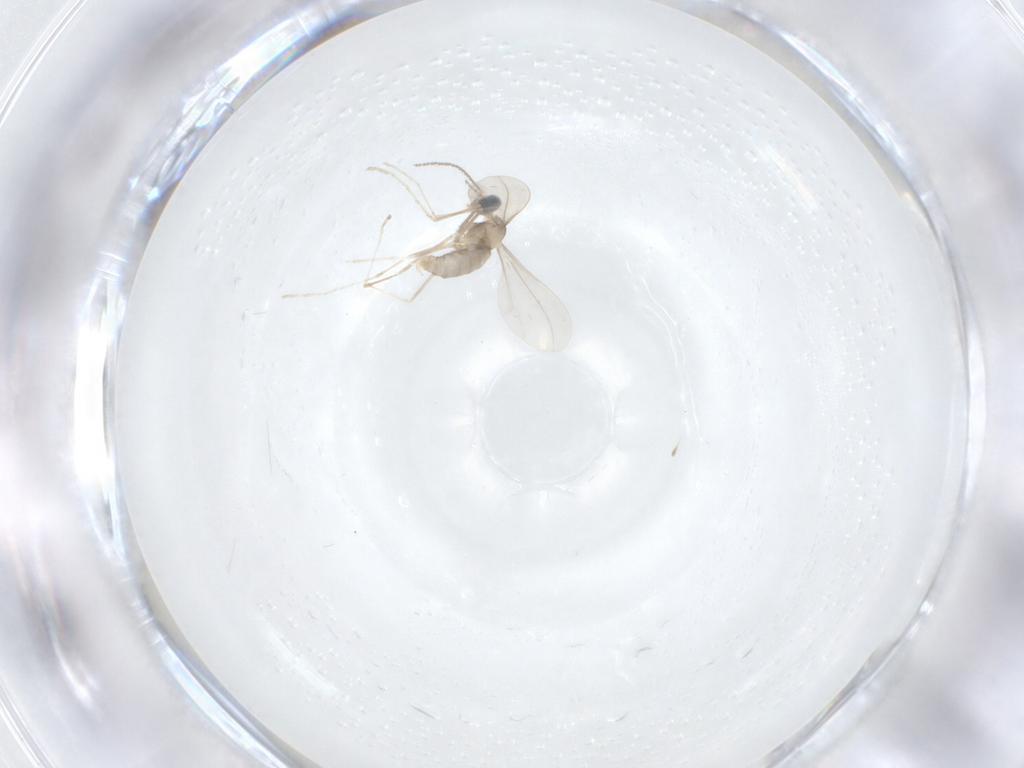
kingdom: Animalia
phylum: Arthropoda
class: Insecta
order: Diptera
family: Cecidomyiidae
